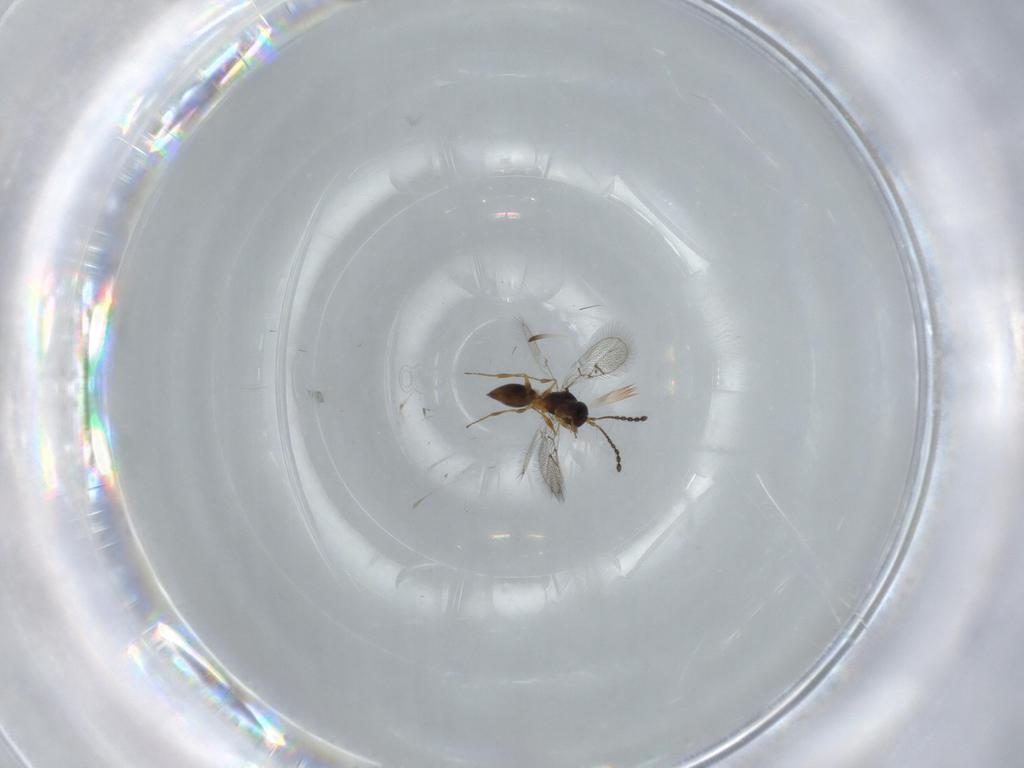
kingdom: Animalia
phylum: Arthropoda
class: Insecta
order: Hymenoptera
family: Figitidae
